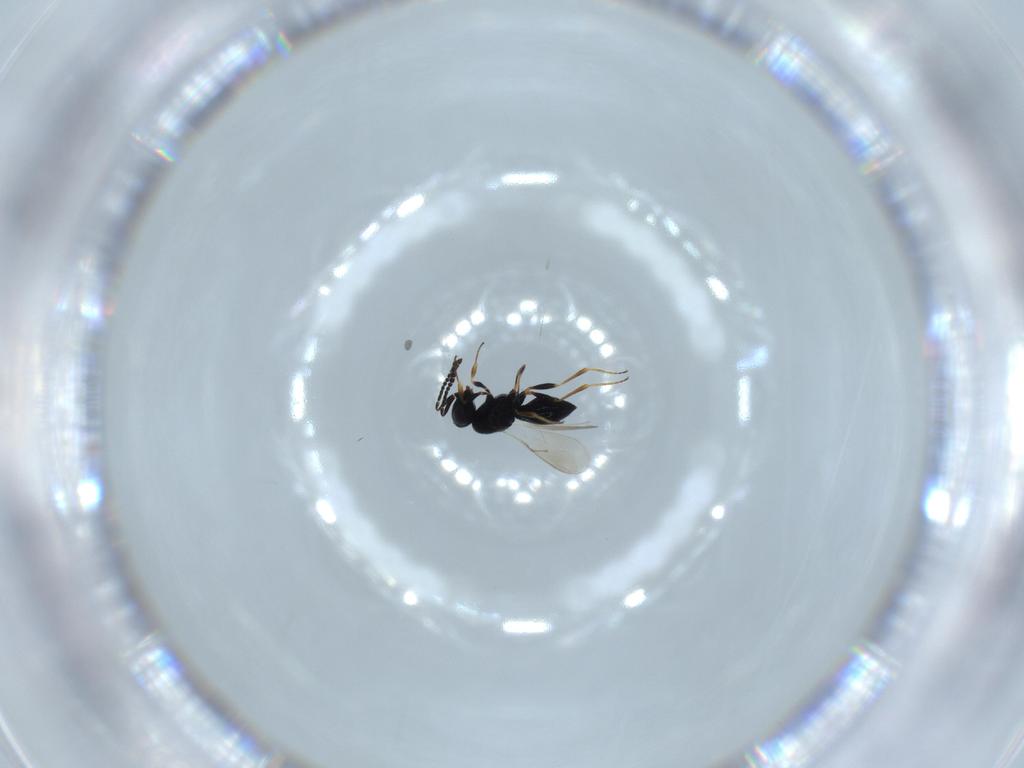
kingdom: Animalia
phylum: Arthropoda
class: Insecta
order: Hymenoptera
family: Scelionidae
